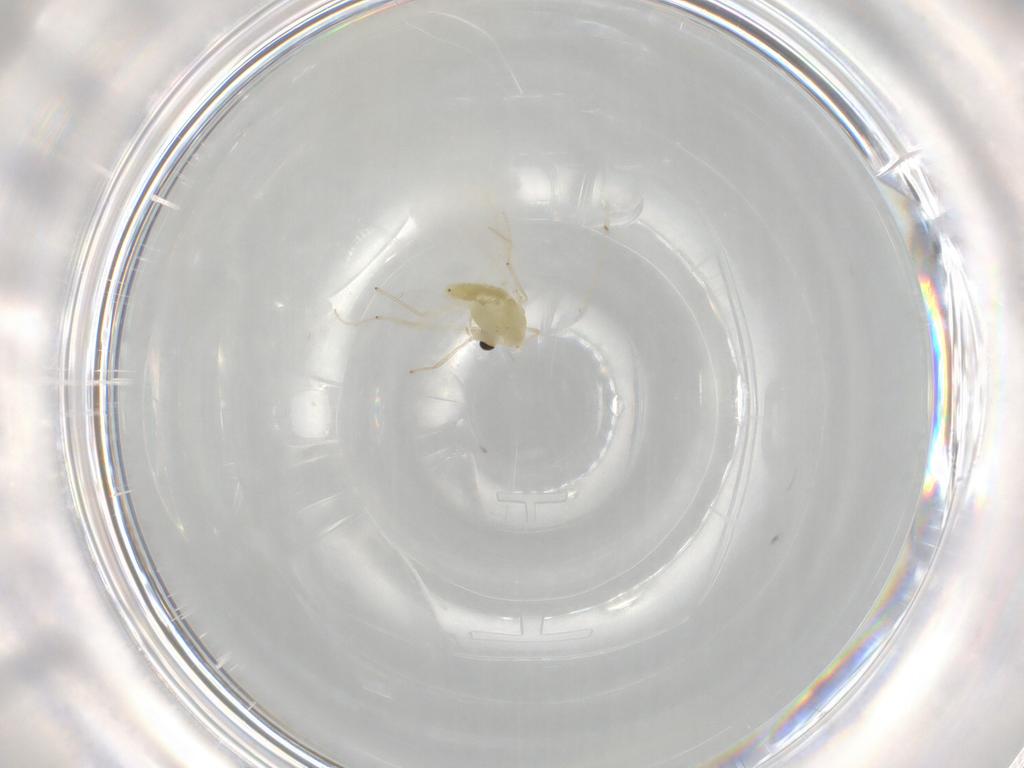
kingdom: Animalia
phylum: Arthropoda
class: Insecta
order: Diptera
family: Chironomidae
